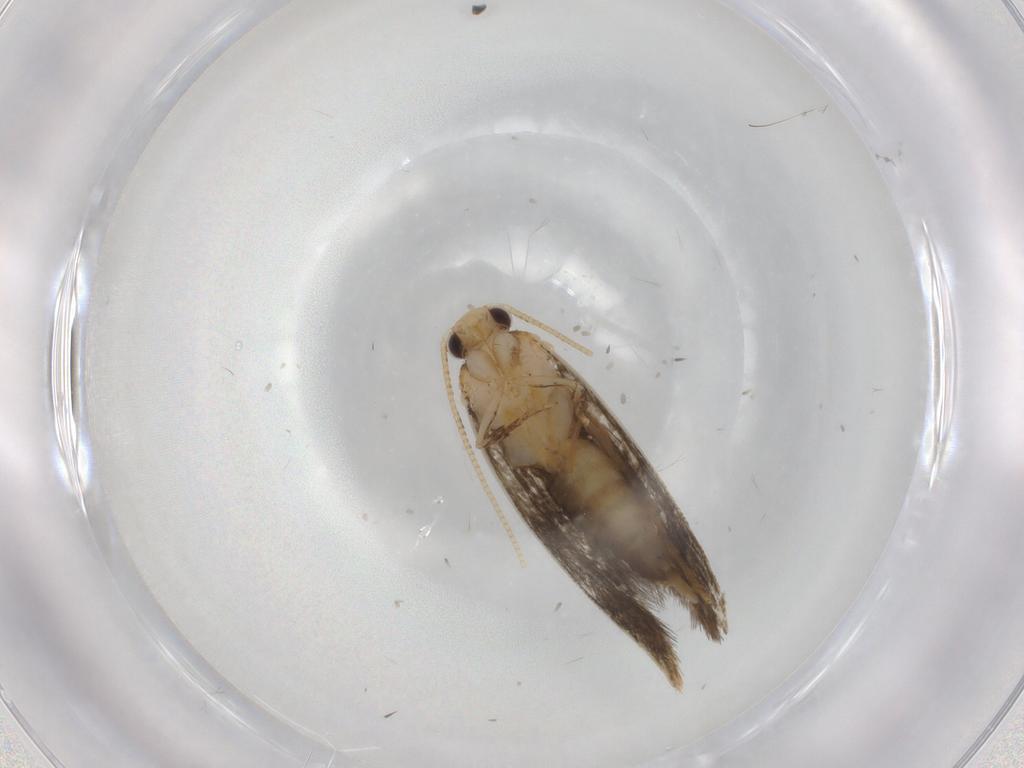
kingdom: Animalia
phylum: Arthropoda
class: Insecta
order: Lepidoptera
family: Tineidae
